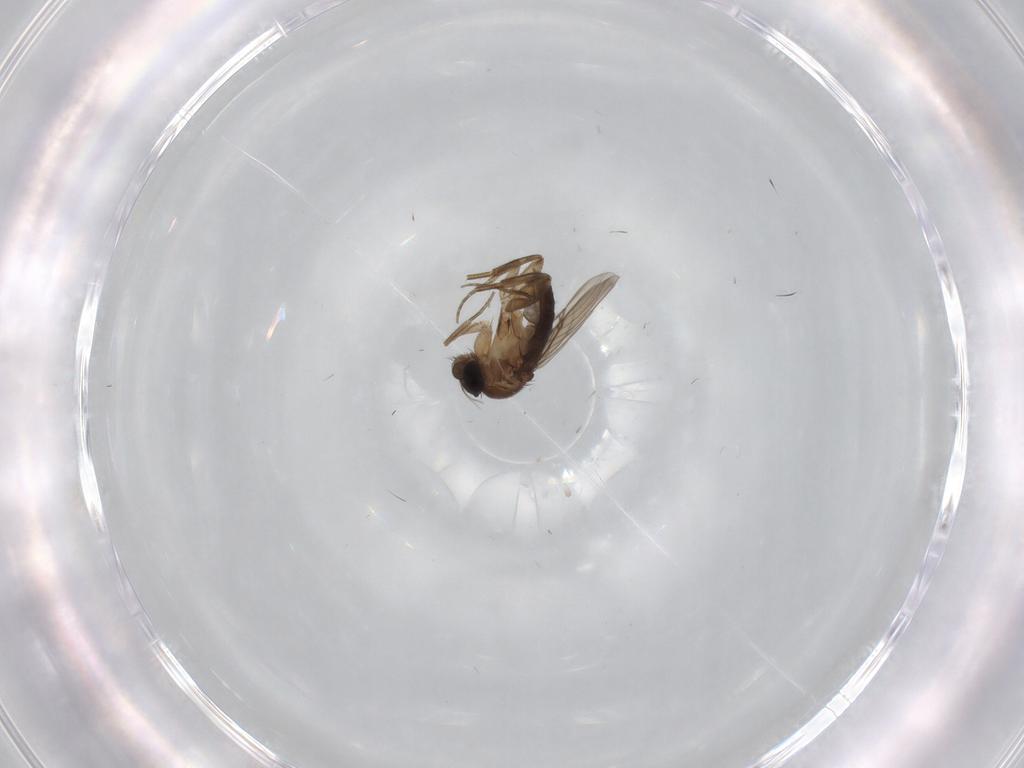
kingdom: Animalia
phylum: Arthropoda
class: Insecta
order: Diptera
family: Phoridae
